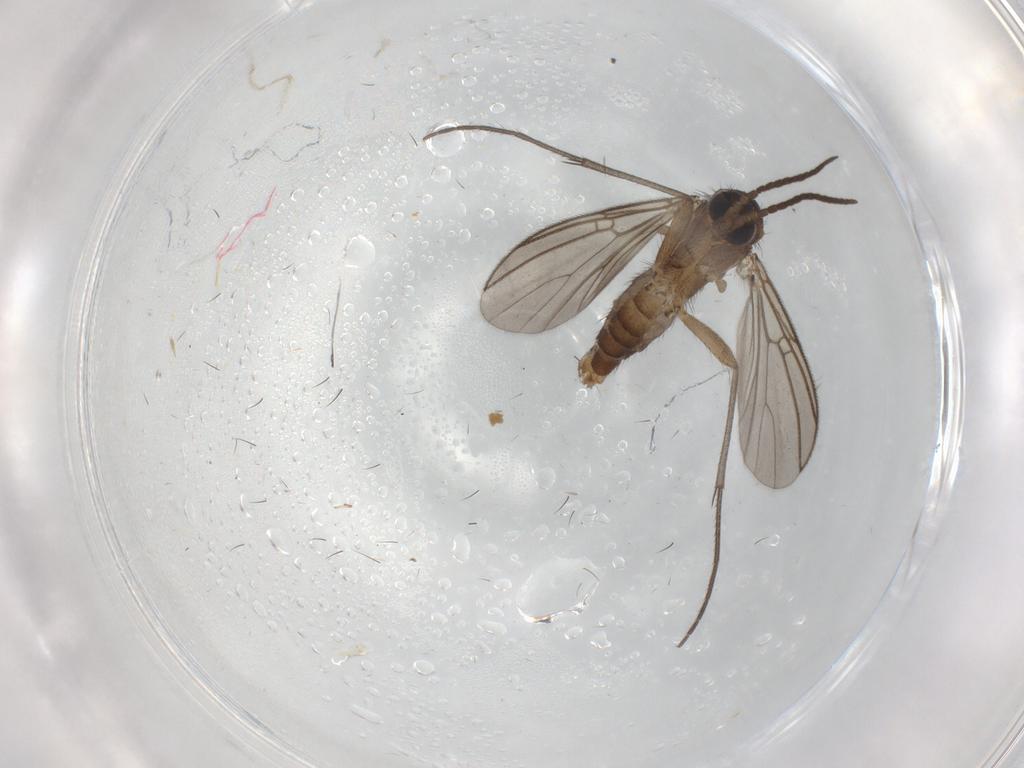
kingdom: Animalia
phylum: Arthropoda
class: Insecta
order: Diptera
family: Sciaridae
